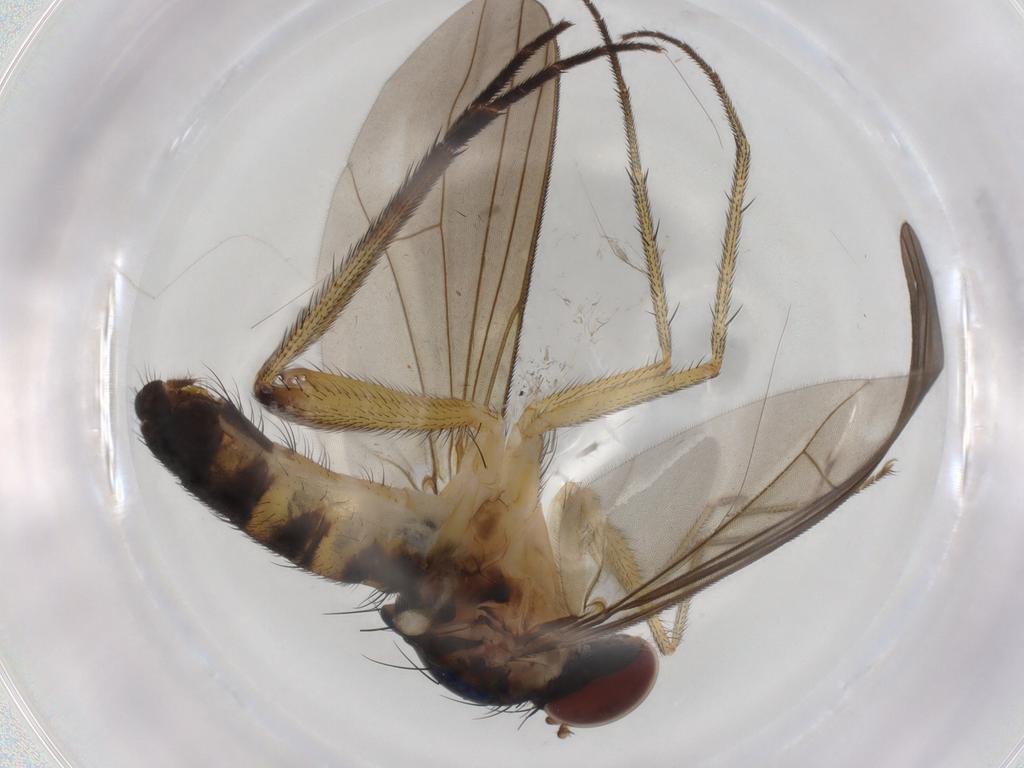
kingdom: Animalia
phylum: Arthropoda
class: Insecta
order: Diptera
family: Dolichopodidae
